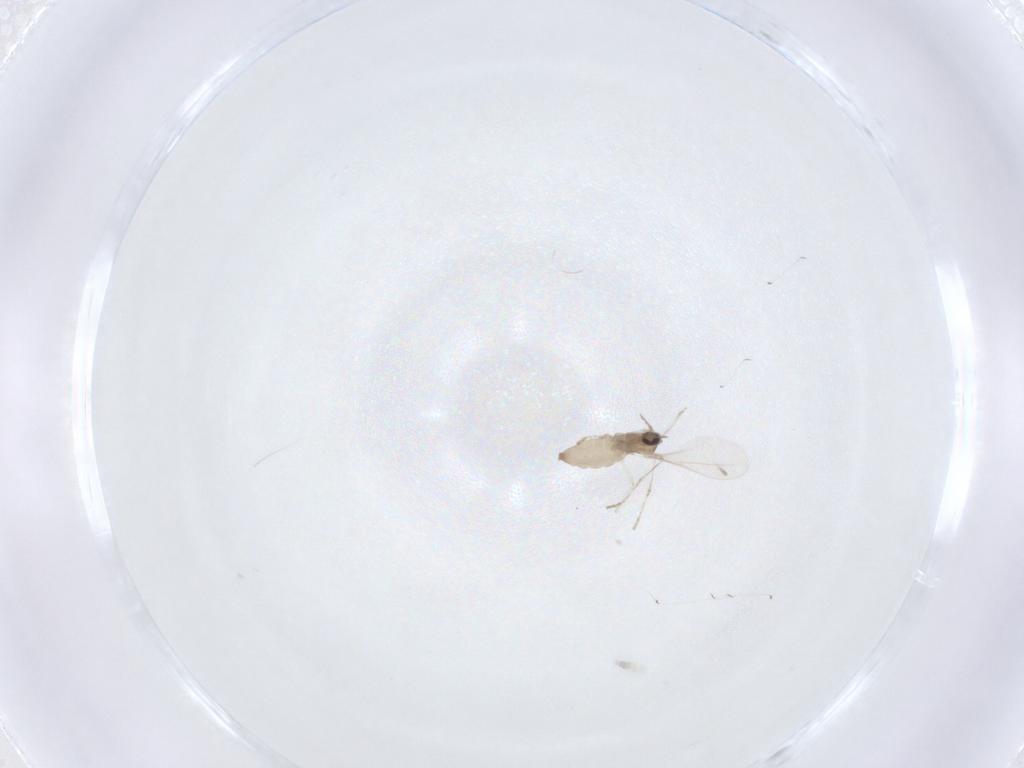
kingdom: Animalia
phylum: Arthropoda
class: Insecta
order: Diptera
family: Cecidomyiidae
